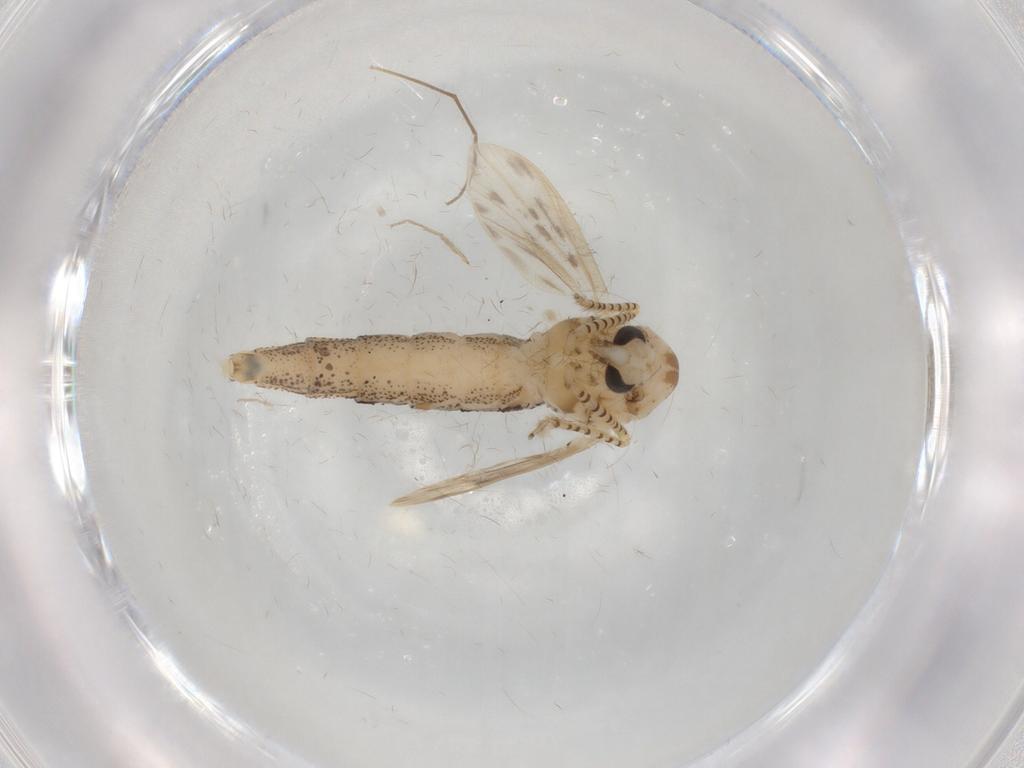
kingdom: Animalia
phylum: Arthropoda
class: Insecta
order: Diptera
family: Chaoboridae
